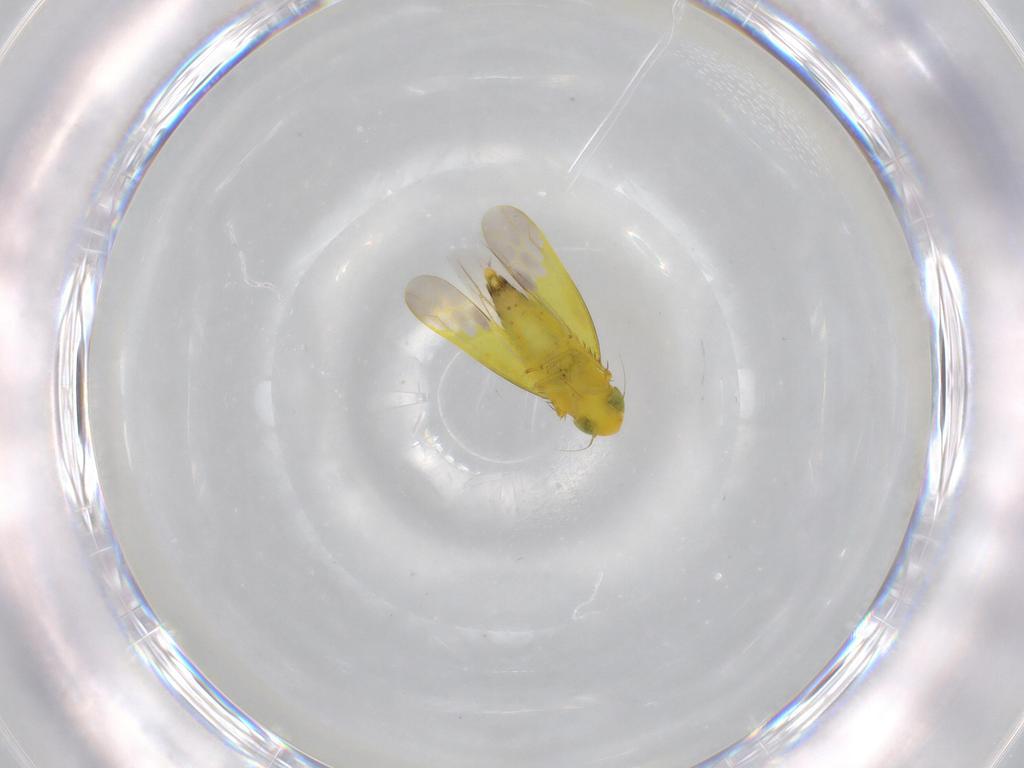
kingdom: Animalia
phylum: Arthropoda
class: Insecta
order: Hemiptera
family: Cicadellidae
